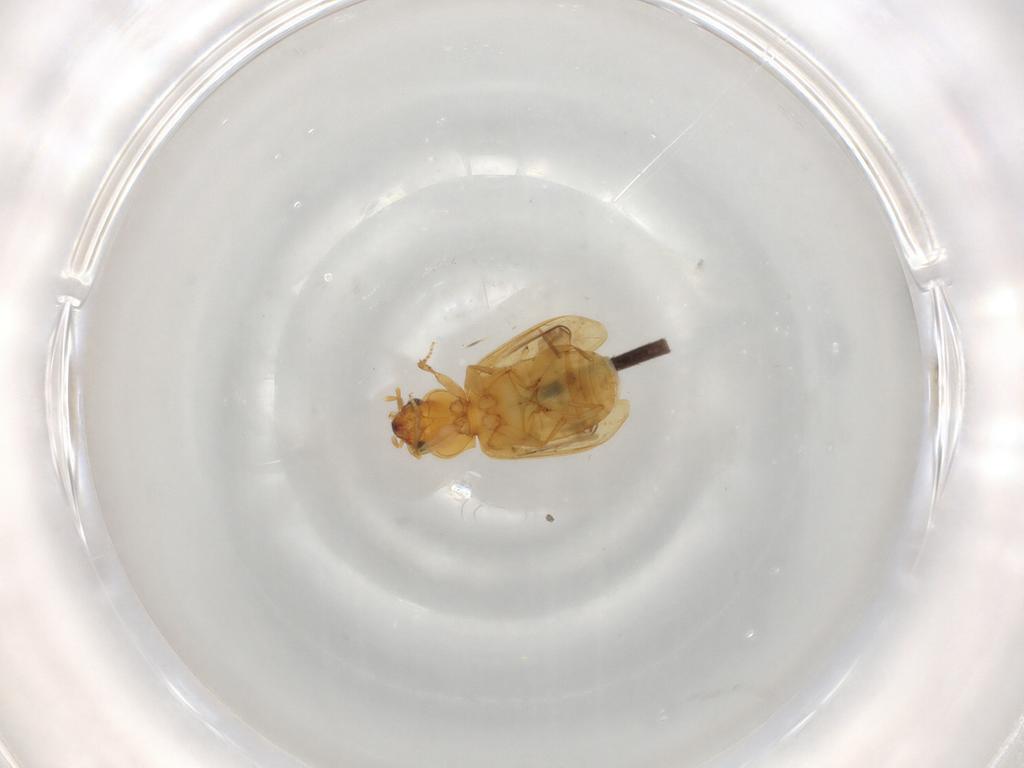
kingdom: Animalia
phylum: Arthropoda
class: Insecta
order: Coleoptera
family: Carabidae
